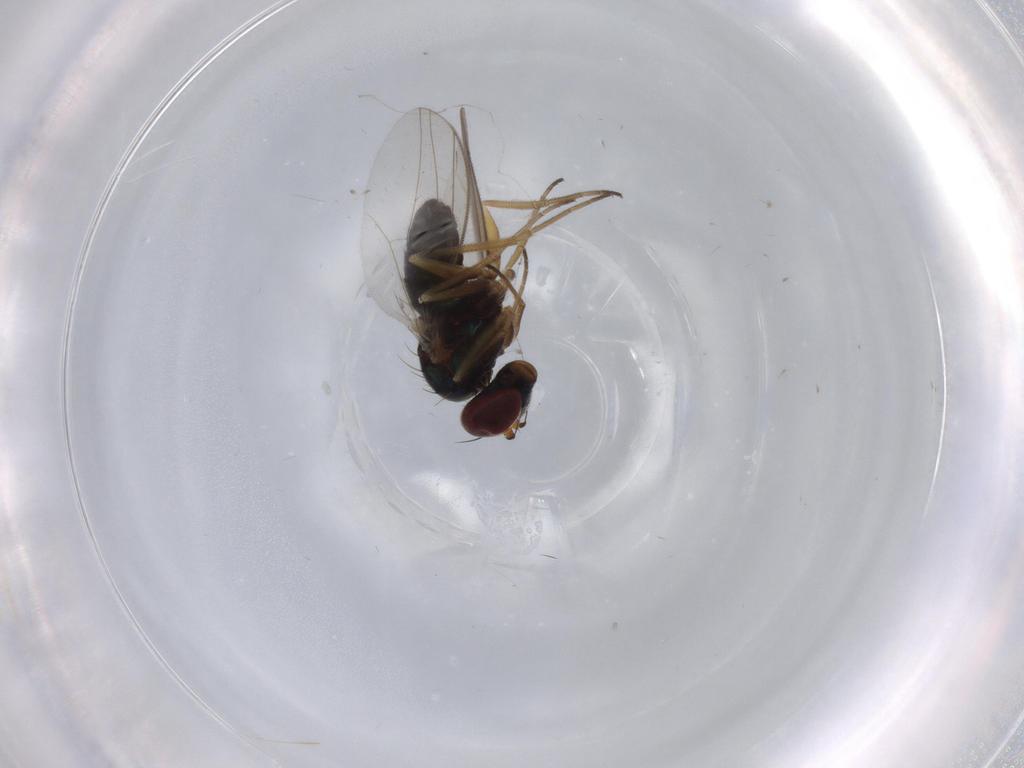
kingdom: Animalia
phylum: Arthropoda
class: Insecta
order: Diptera
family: Dolichopodidae
